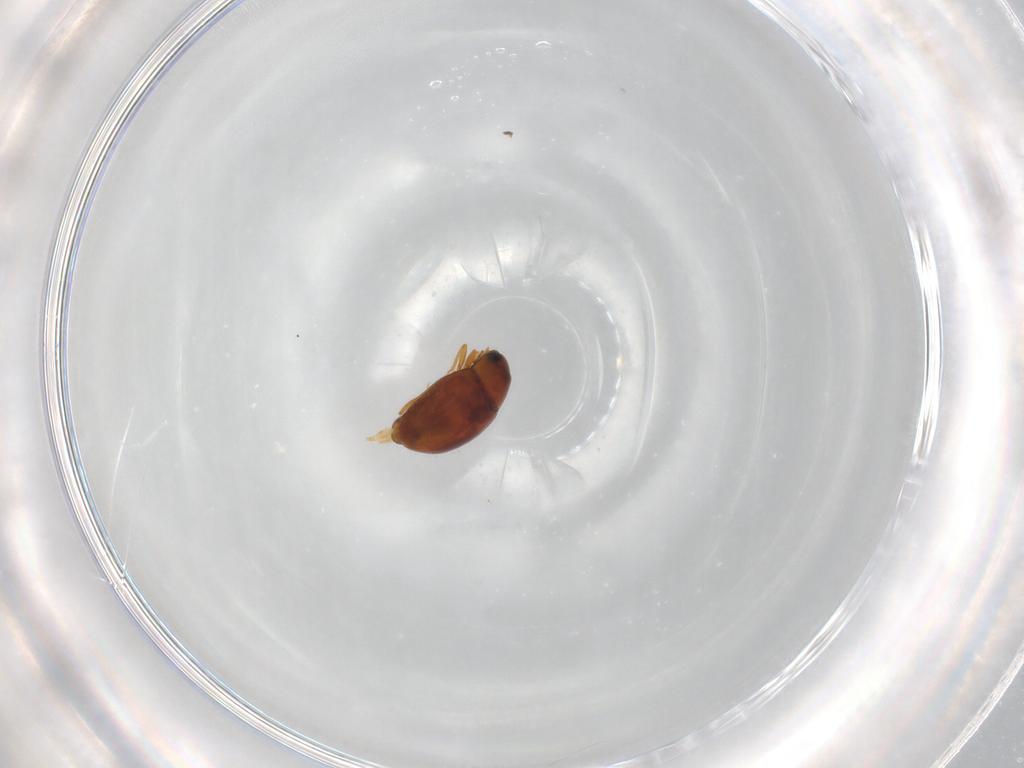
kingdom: Animalia
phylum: Arthropoda
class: Insecta
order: Coleoptera
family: Cryptophagidae
